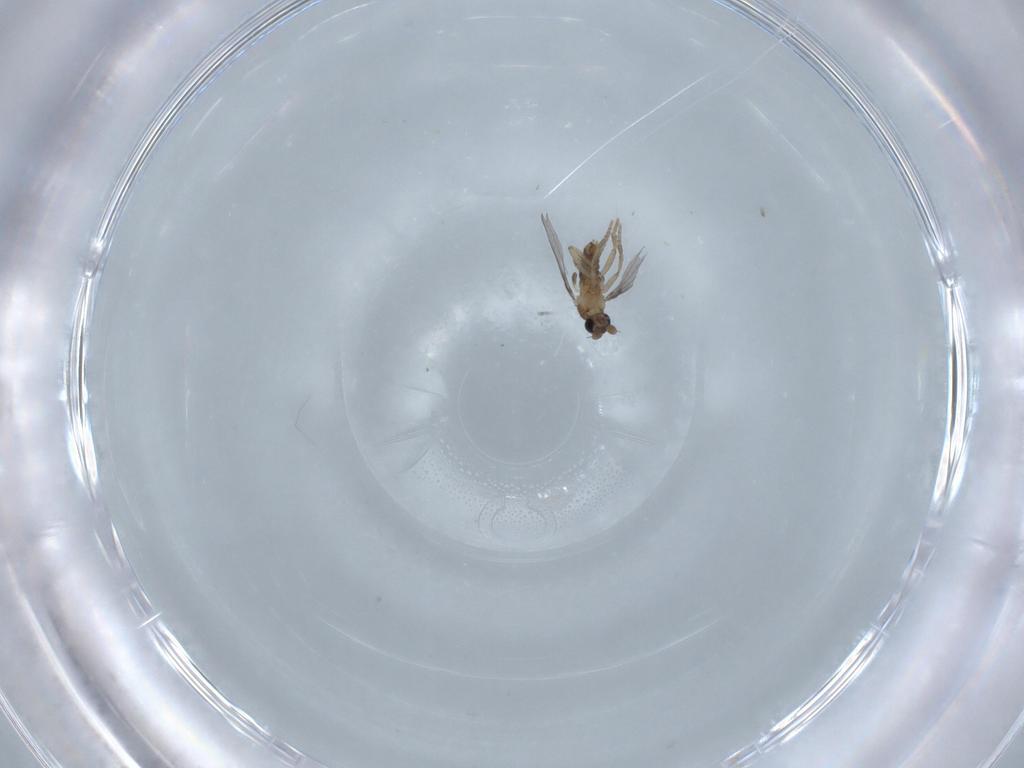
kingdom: Animalia
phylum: Arthropoda
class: Insecta
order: Diptera
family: Phoridae
